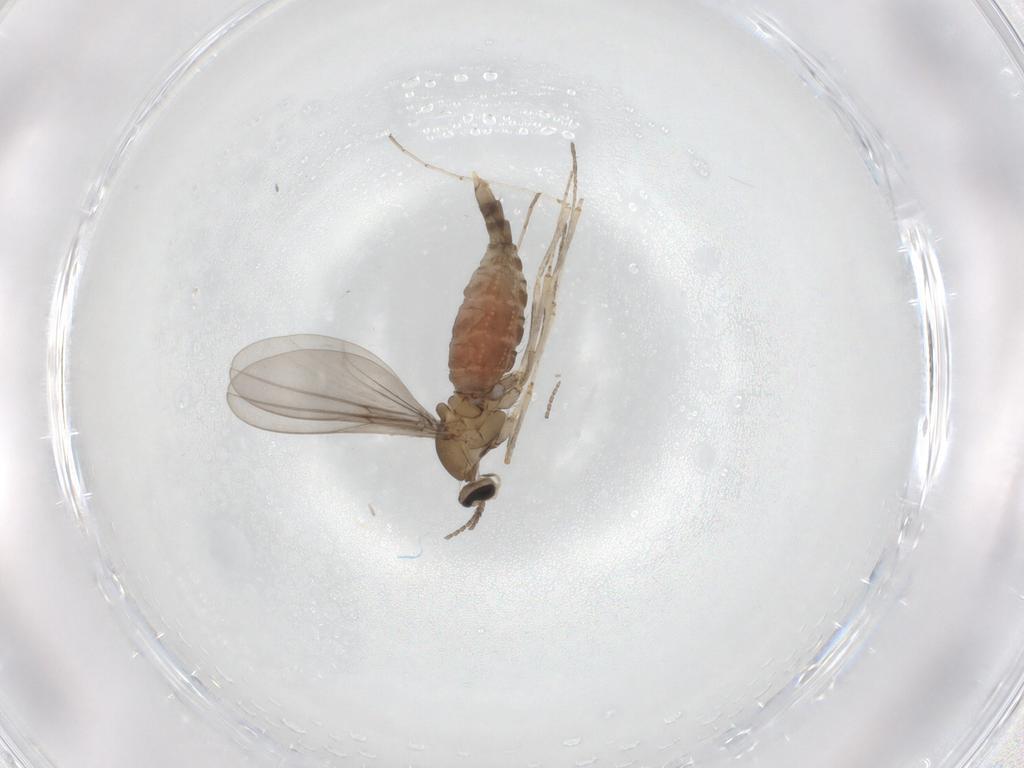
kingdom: Animalia
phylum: Arthropoda
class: Insecta
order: Diptera
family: Cecidomyiidae
